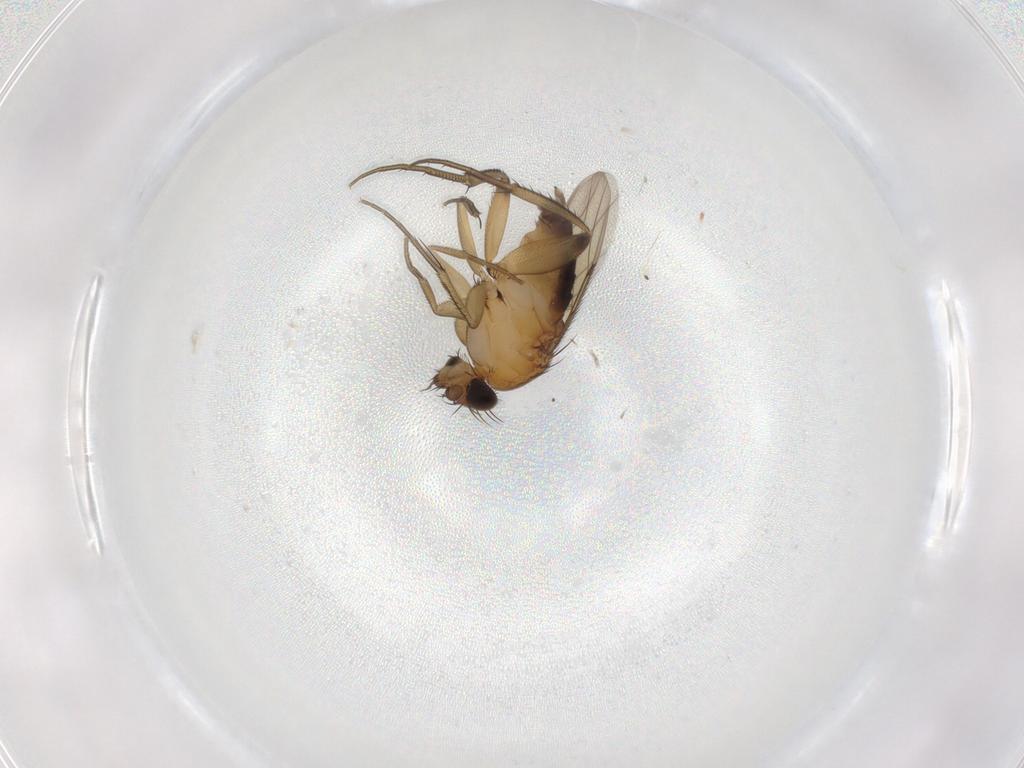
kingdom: Animalia
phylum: Arthropoda
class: Insecta
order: Diptera
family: Phoridae
